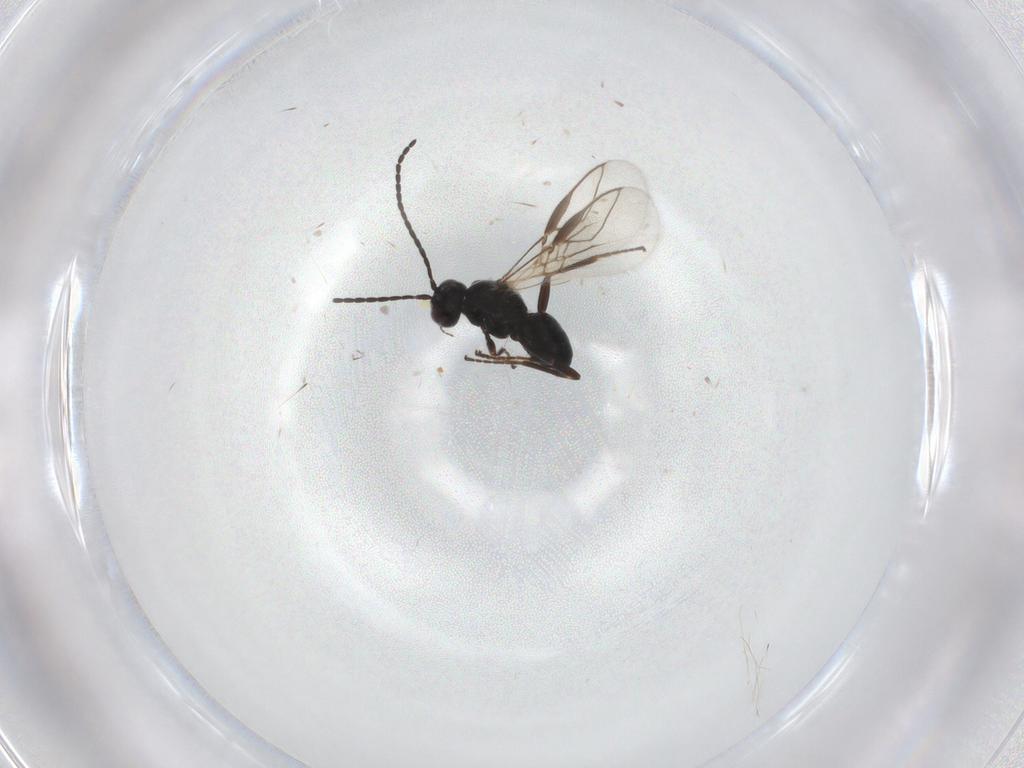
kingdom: Animalia
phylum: Arthropoda
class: Insecta
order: Hymenoptera
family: Braconidae
